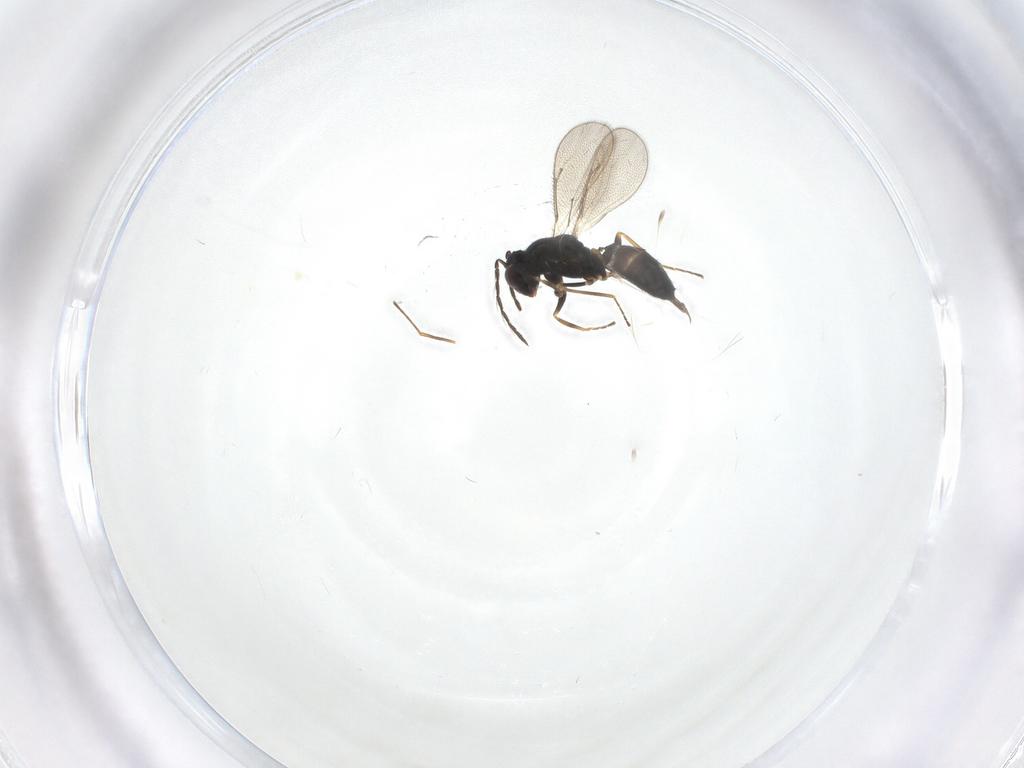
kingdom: Animalia
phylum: Arthropoda
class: Insecta
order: Hymenoptera
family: Eulophidae
